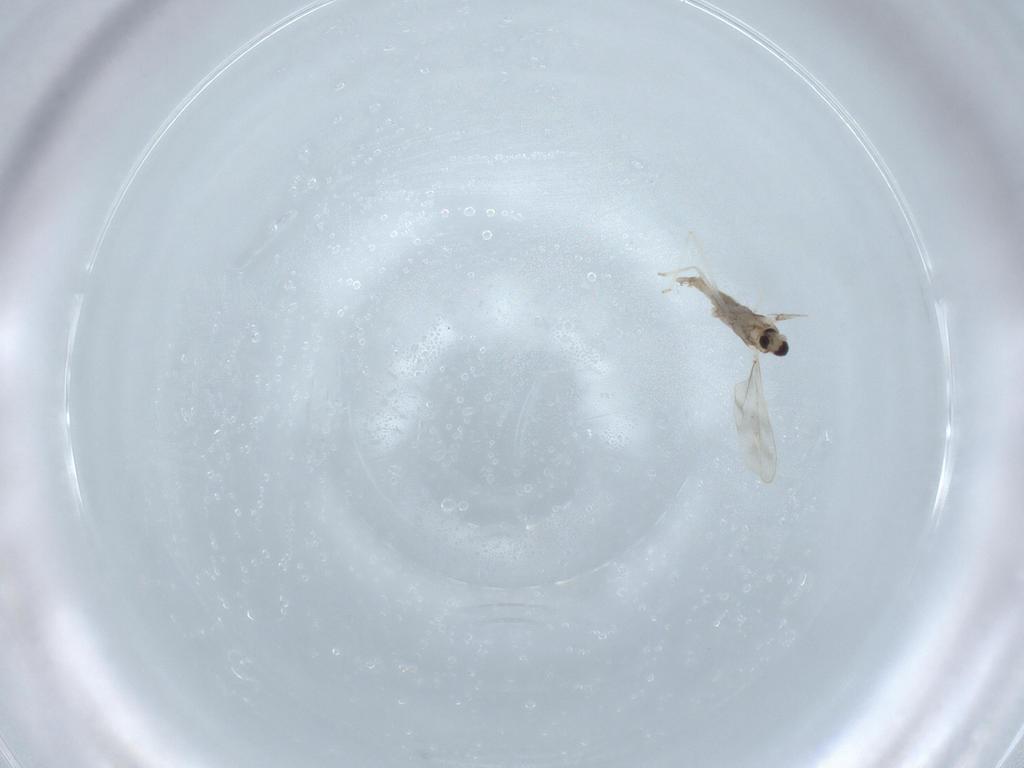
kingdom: Animalia
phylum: Arthropoda
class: Insecta
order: Diptera
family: Cecidomyiidae
